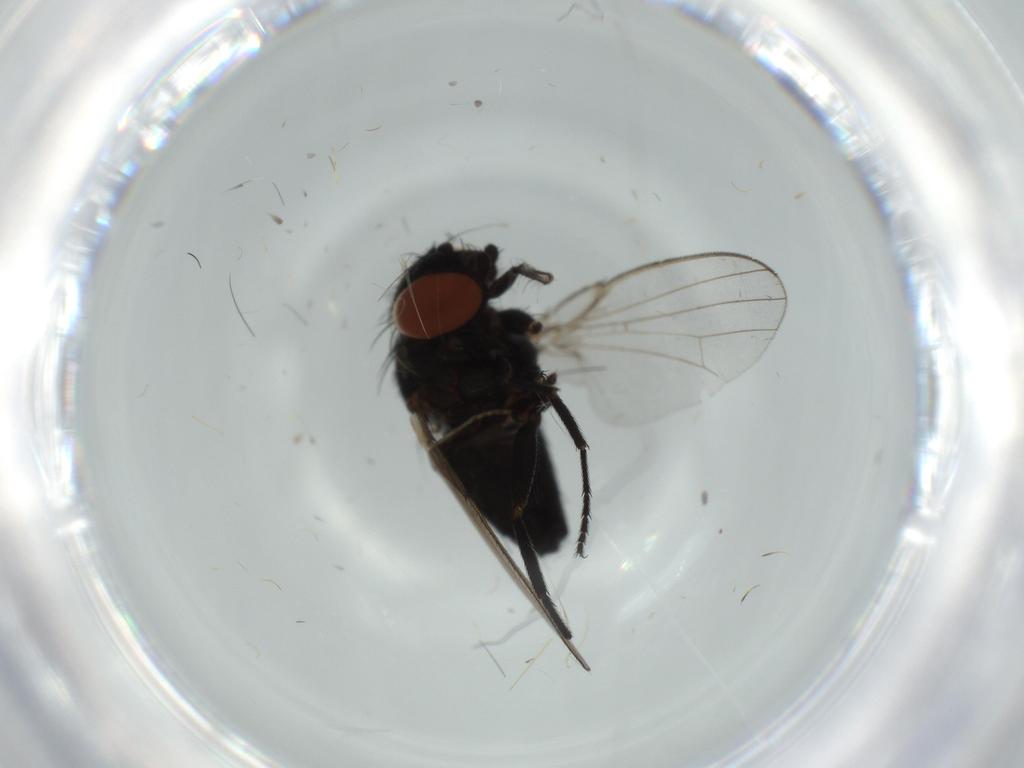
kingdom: Animalia
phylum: Arthropoda
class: Insecta
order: Diptera
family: Milichiidae
